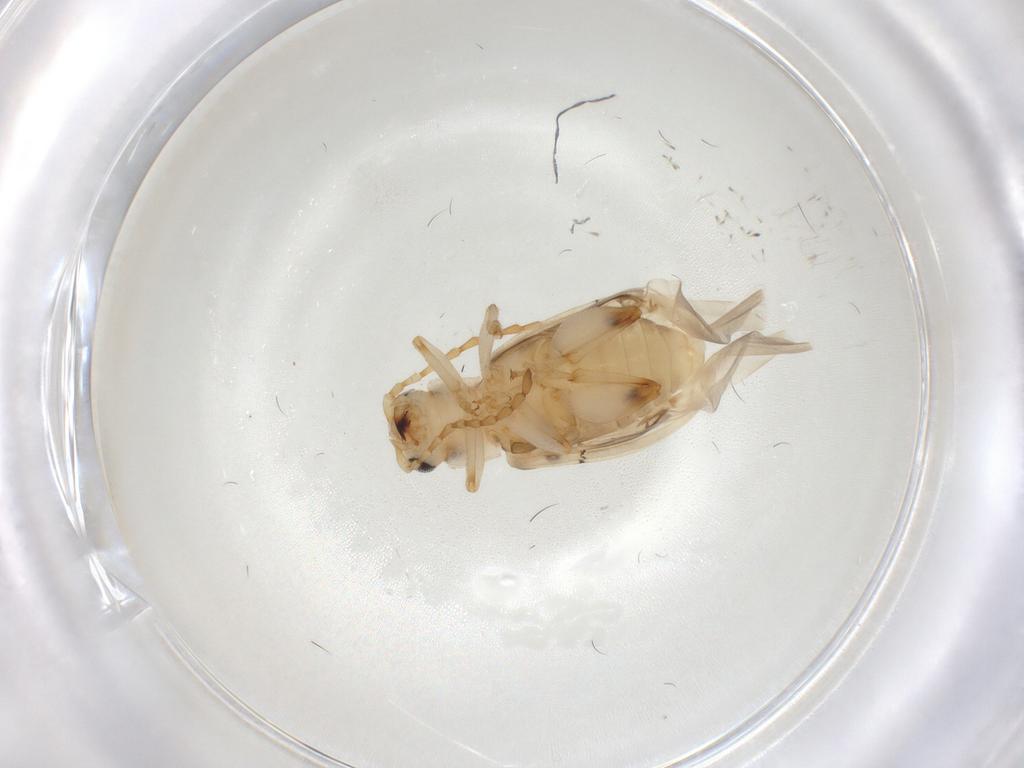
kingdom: Animalia
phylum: Arthropoda
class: Insecta
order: Coleoptera
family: Chrysomelidae
